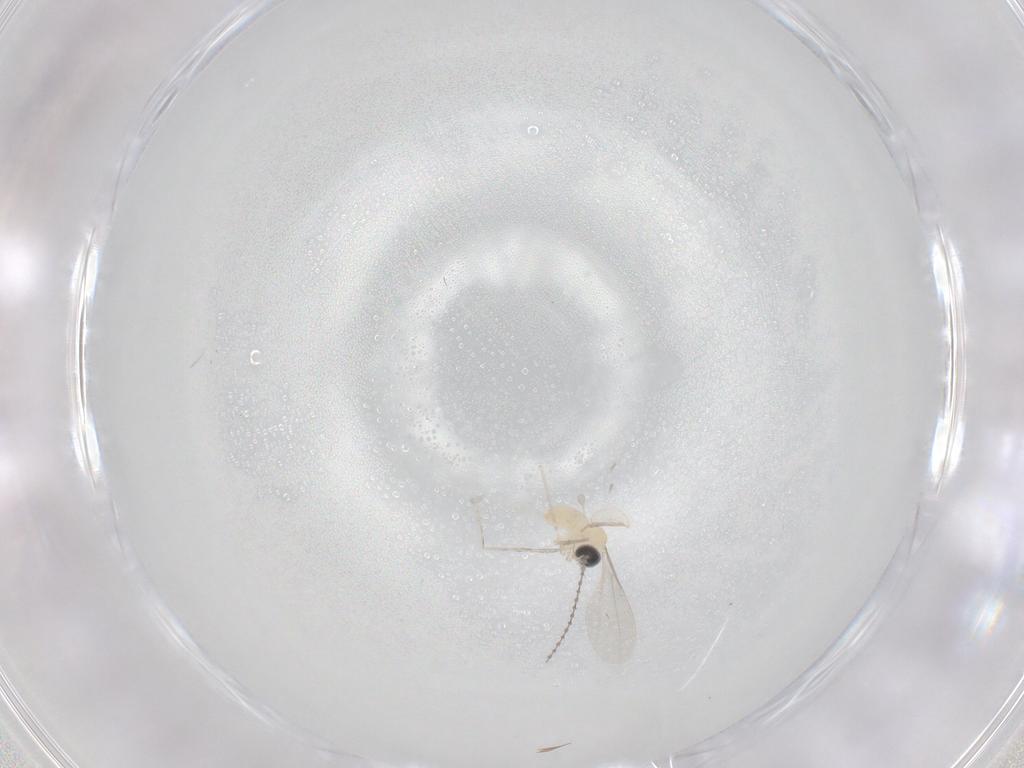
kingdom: Animalia
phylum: Arthropoda
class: Insecta
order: Diptera
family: Cecidomyiidae
